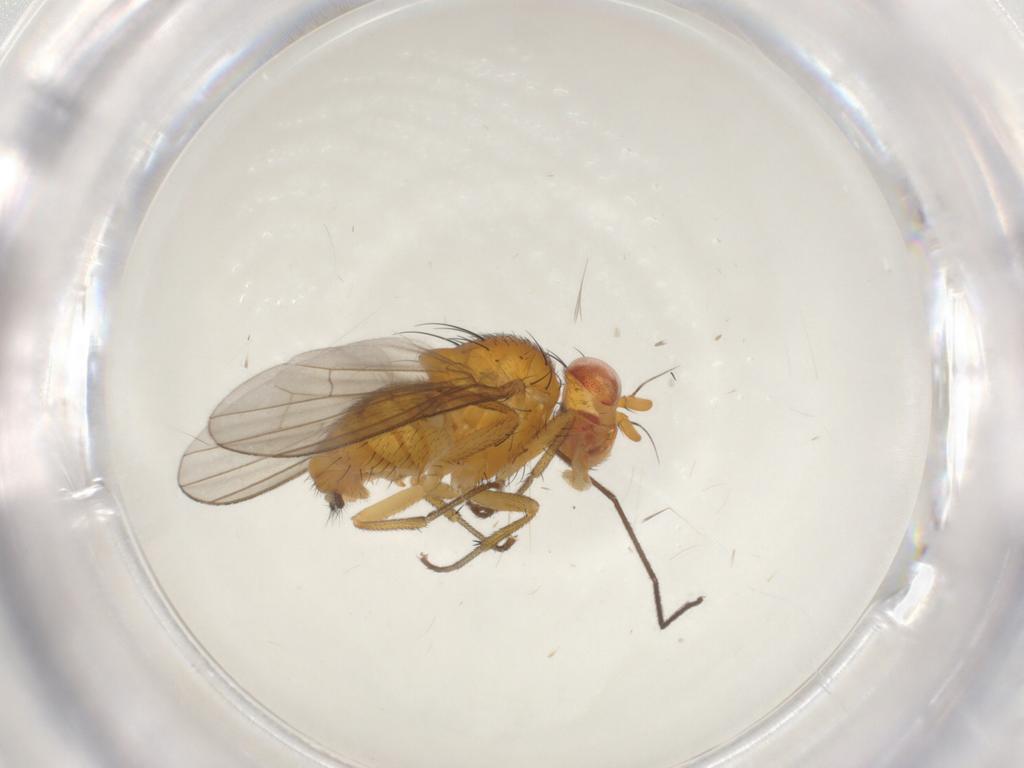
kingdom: Animalia
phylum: Arthropoda
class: Insecta
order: Diptera
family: Lauxaniidae
